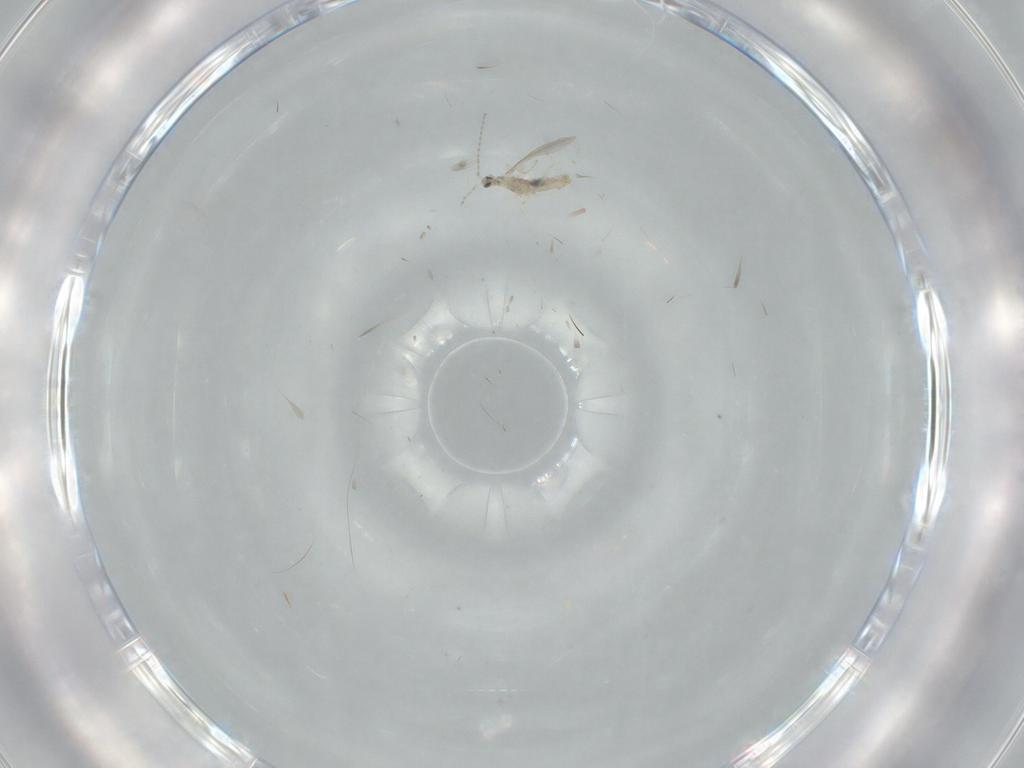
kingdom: Animalia
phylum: Arthropoda
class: Insecta
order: Diptera
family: Cecidomyiidae
